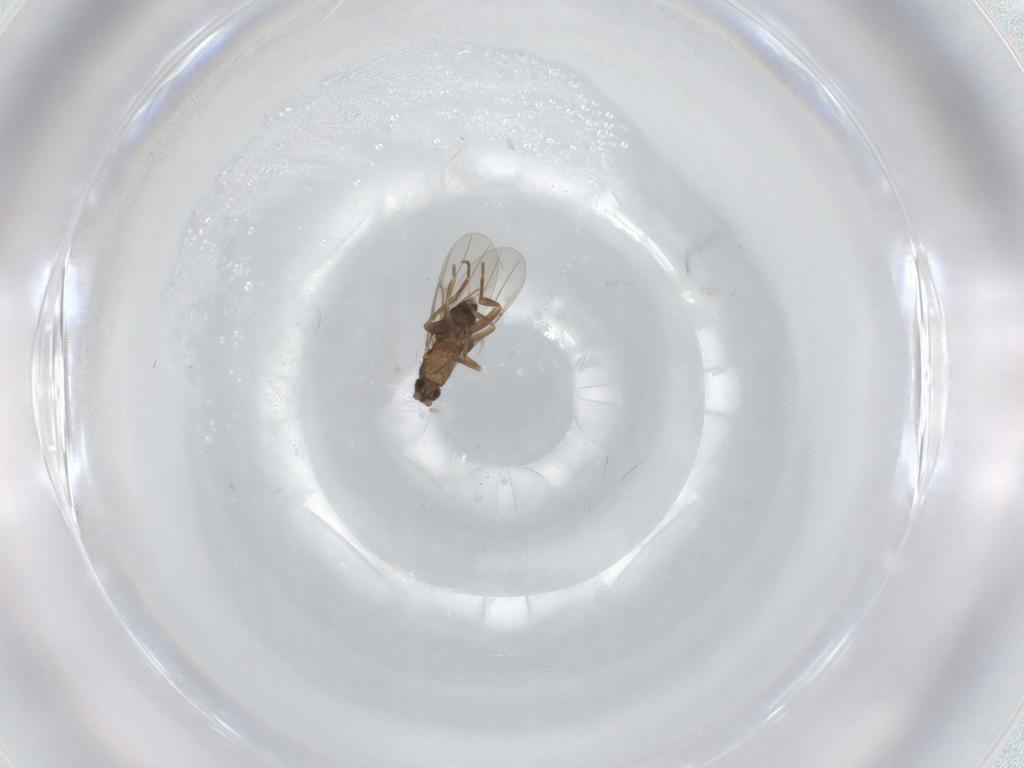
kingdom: Animalia
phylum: Arthropoda
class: Insecta
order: Diptera
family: Phoridae
